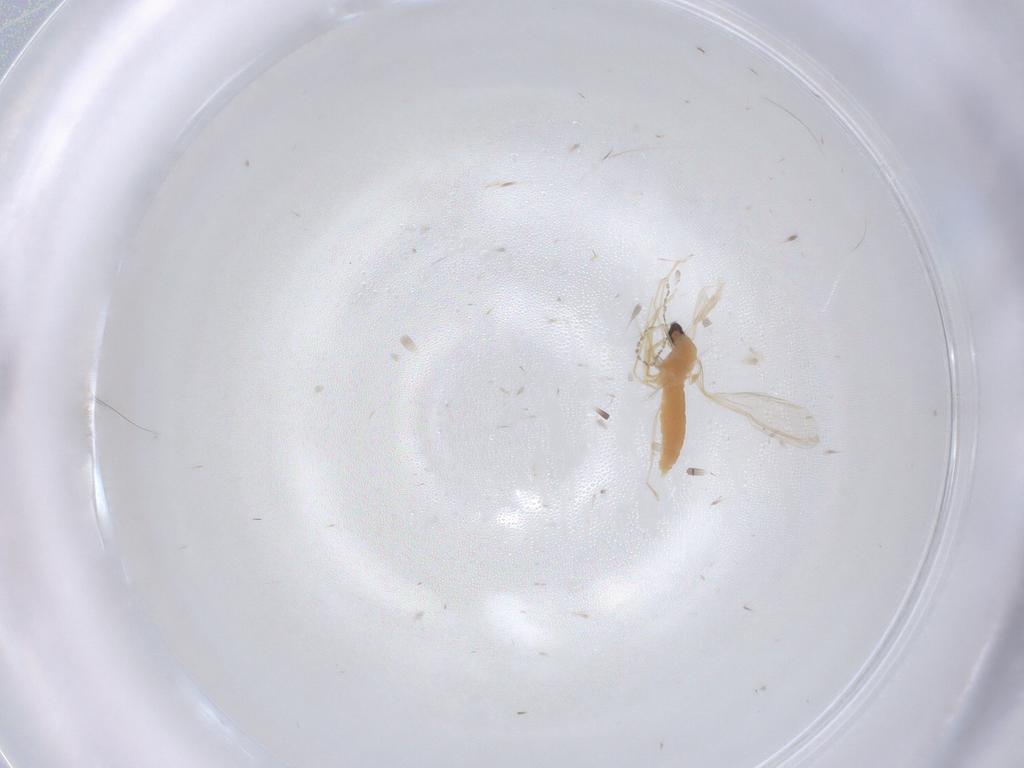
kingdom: Animalia
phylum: Arthropoda
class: Insecta
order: Diptera
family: Cecidomyiidae
